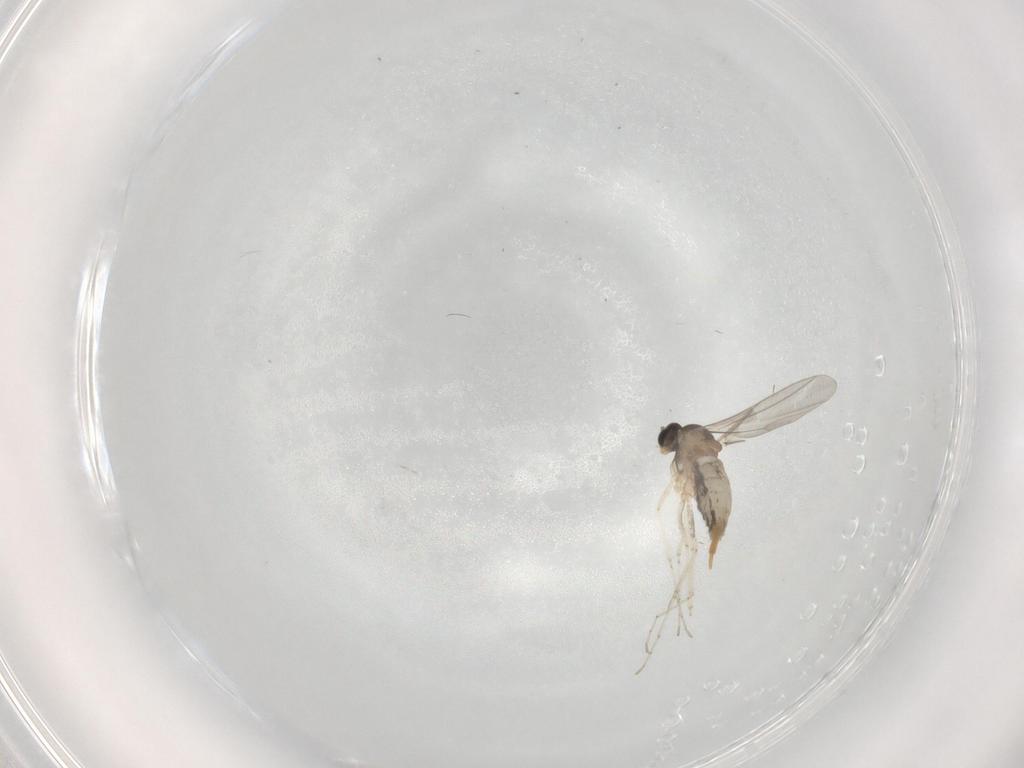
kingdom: Animalia
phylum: Arthropoda
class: Insecta
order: Diptera
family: Cecidomyiidae
